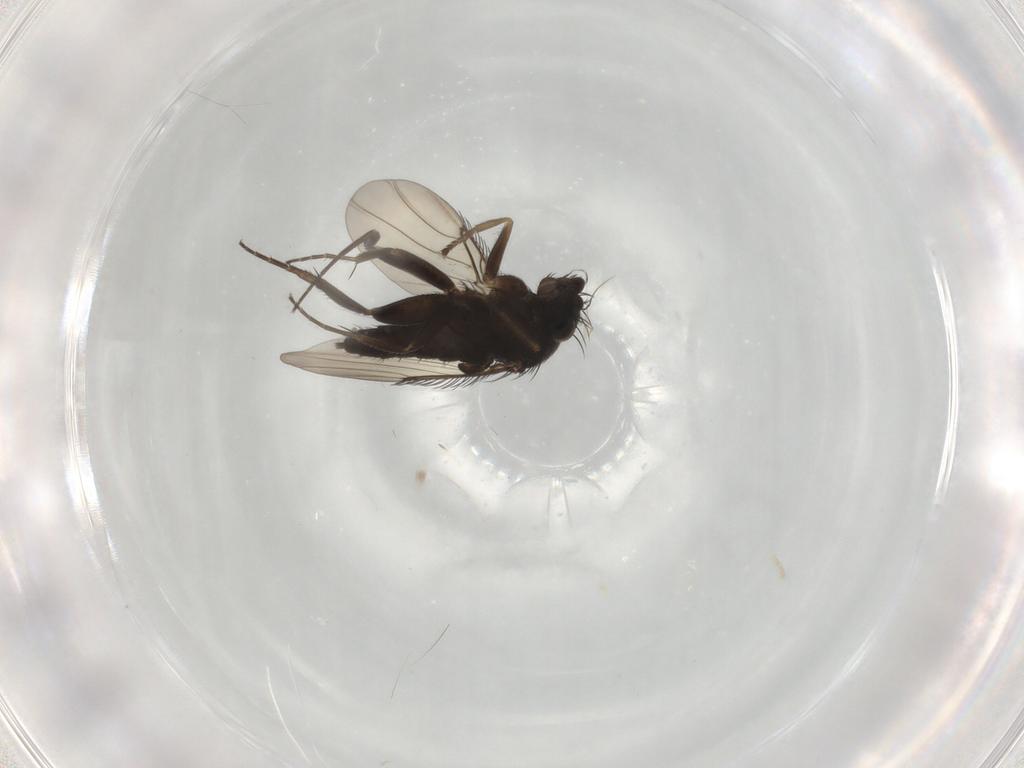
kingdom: Animalia
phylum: Arthropoda
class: Insecta
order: Diptera
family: Phoridae
